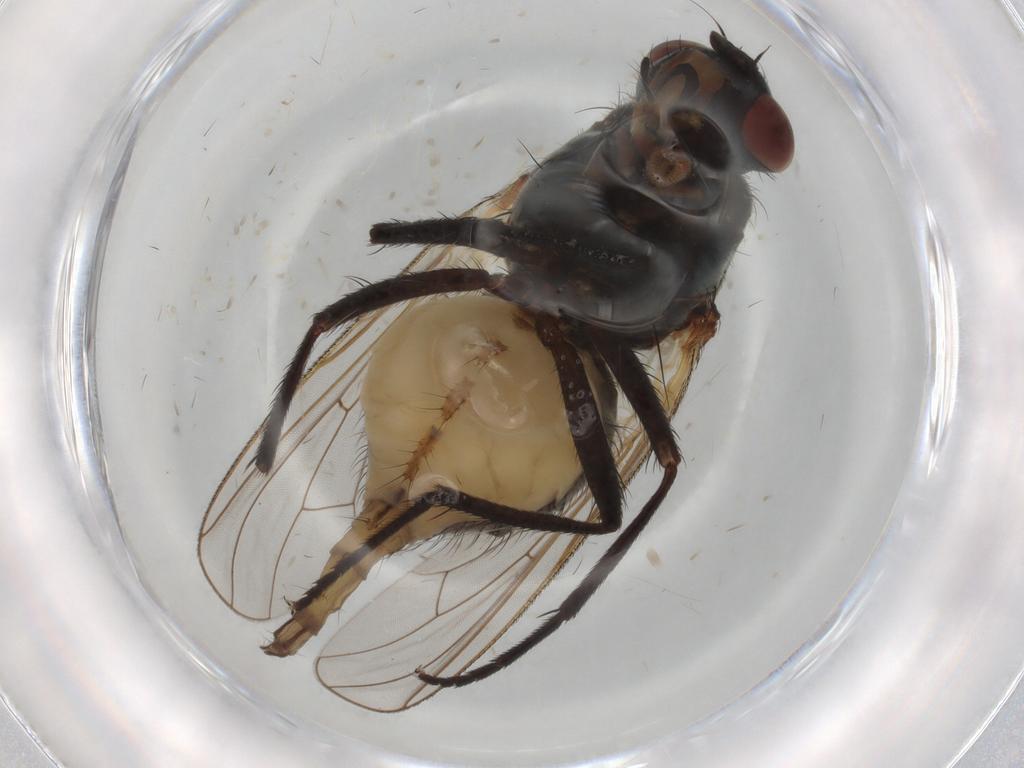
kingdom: Animalia
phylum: Arthropoda
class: Insecta
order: Diptera
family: Anthomyiidae
